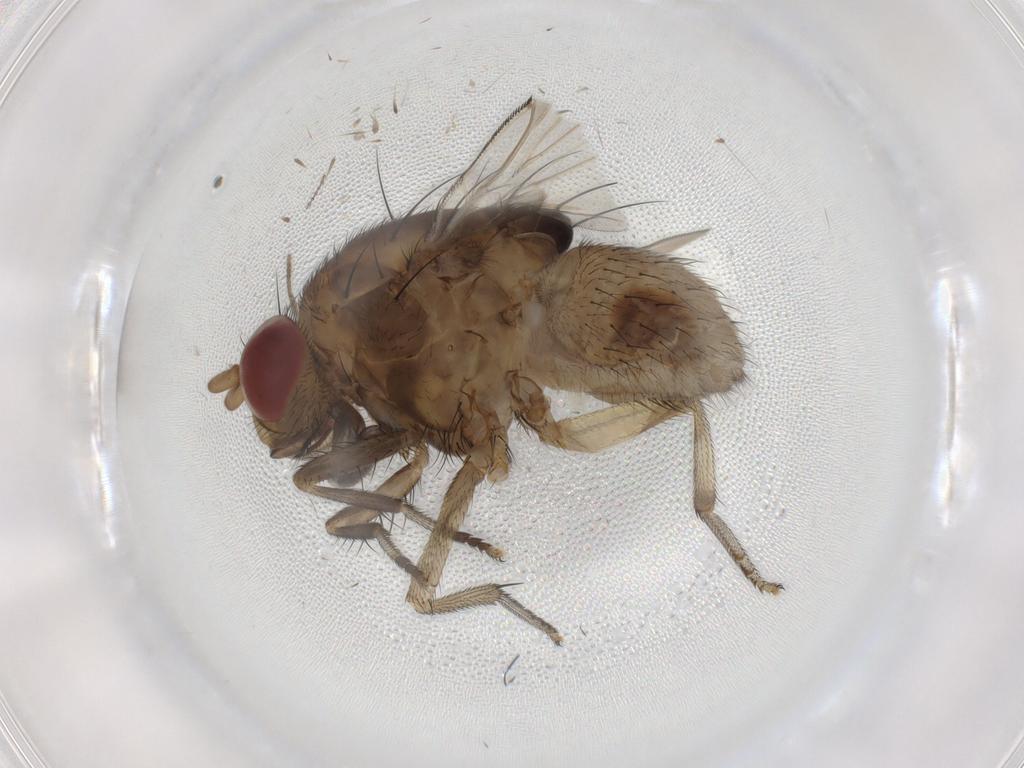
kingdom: Animalia
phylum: Arthropoda
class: Insecta
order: Diptera
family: Psychodidae
